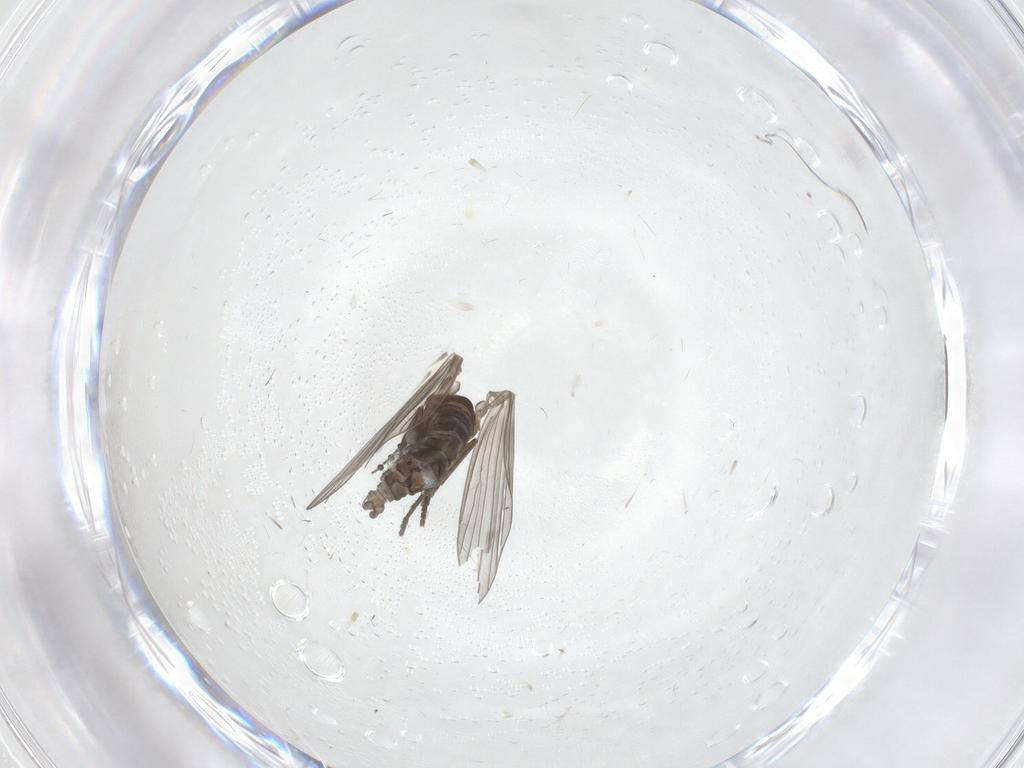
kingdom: Animalia
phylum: Arthropoda
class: Insecta
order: Diptera
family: Psychodidae
